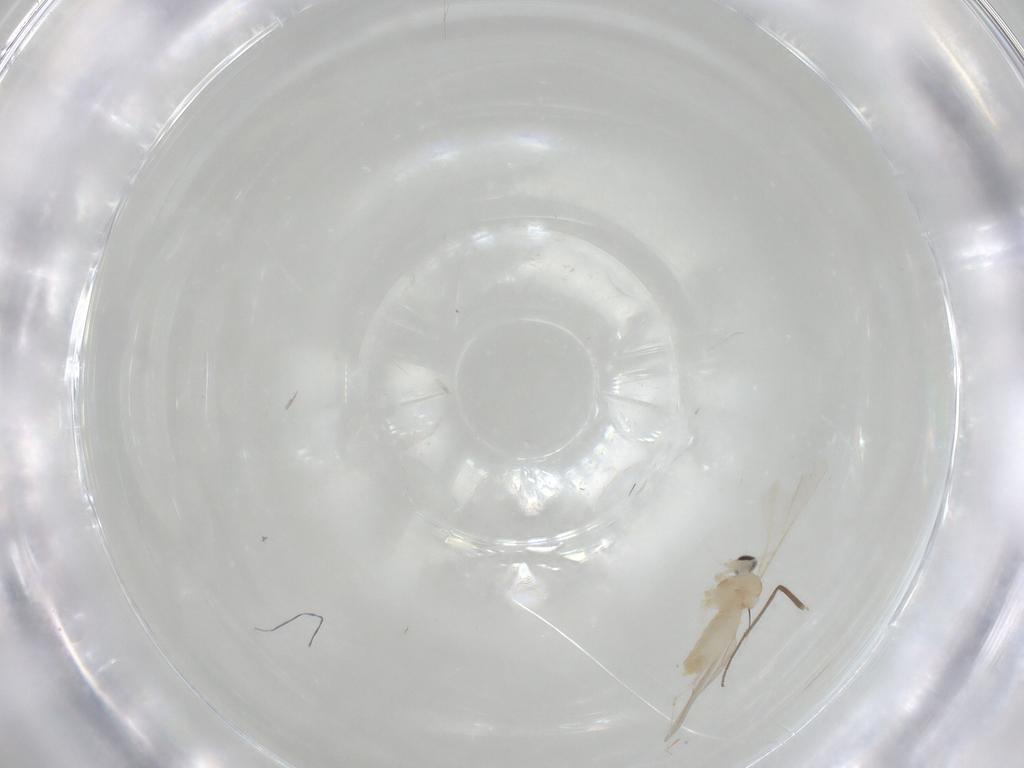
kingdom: Animalia
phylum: Arthropoda
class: Insecta
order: Diptera
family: Cecidomyiidae
